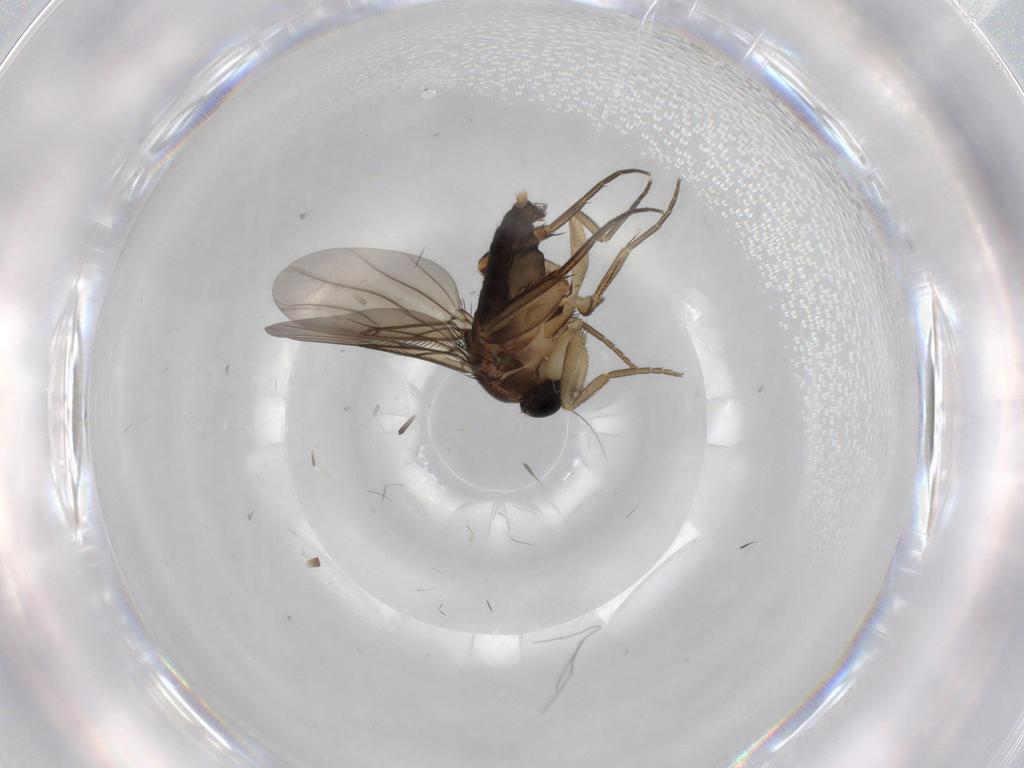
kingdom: Animalia
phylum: Arthropoda
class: Insecta
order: Diptera
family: Phoridae
